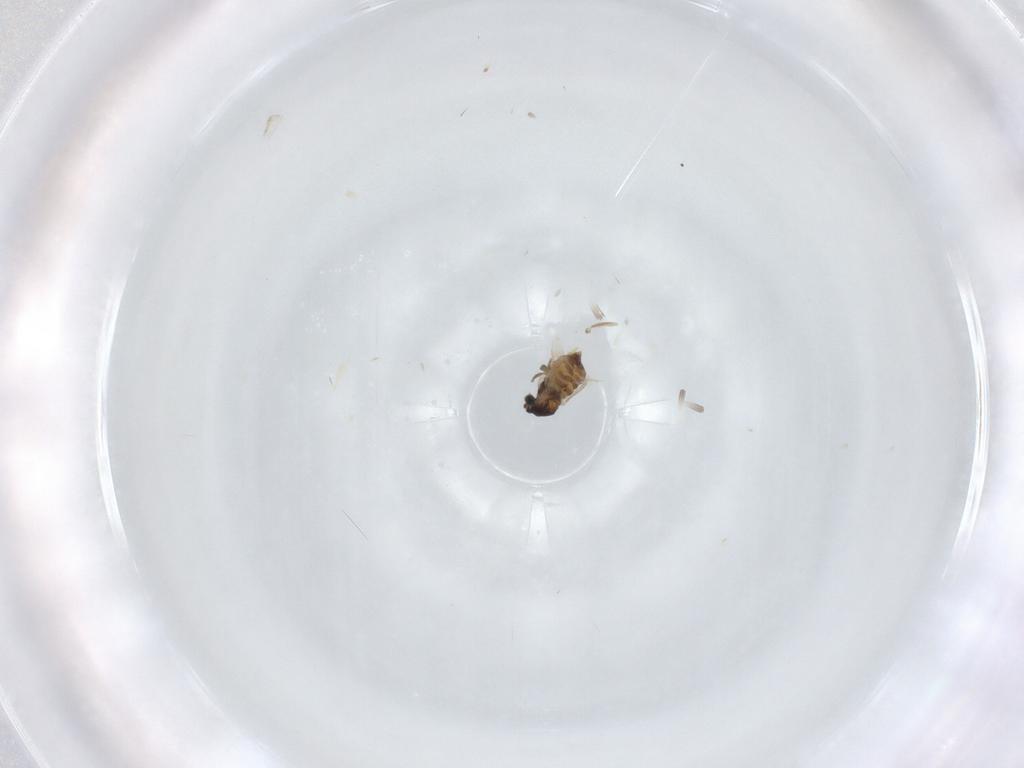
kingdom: Animalia
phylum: Arthropoda
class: Insecta
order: Diptera
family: Cecidomyiidae
